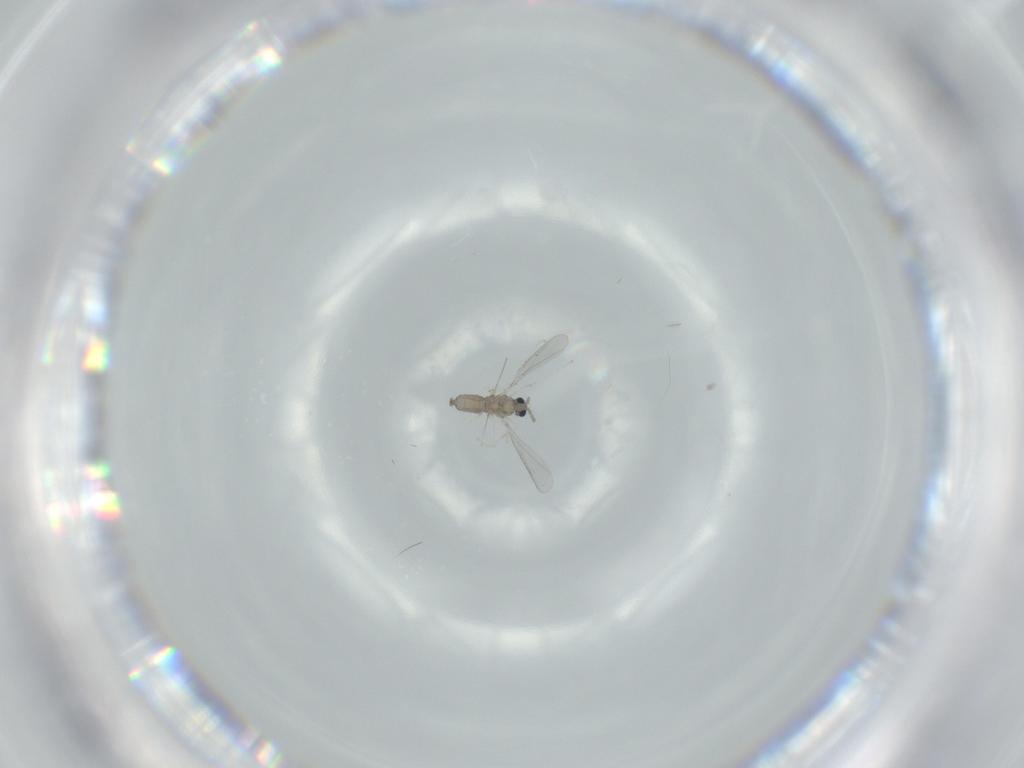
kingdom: Animalia
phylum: Arthropoda
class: Insecta
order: Diptera
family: Cecidomyiidae
